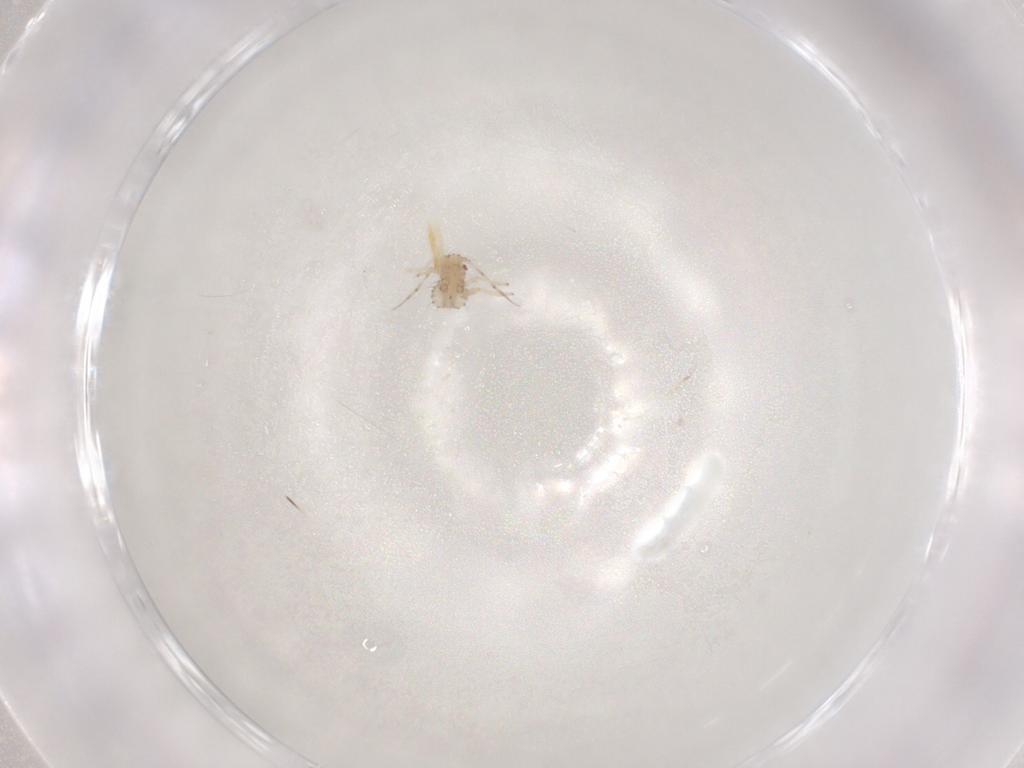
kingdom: Animalia
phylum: Arthropoda
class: Insecta
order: Hemiptera
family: Aphididae
